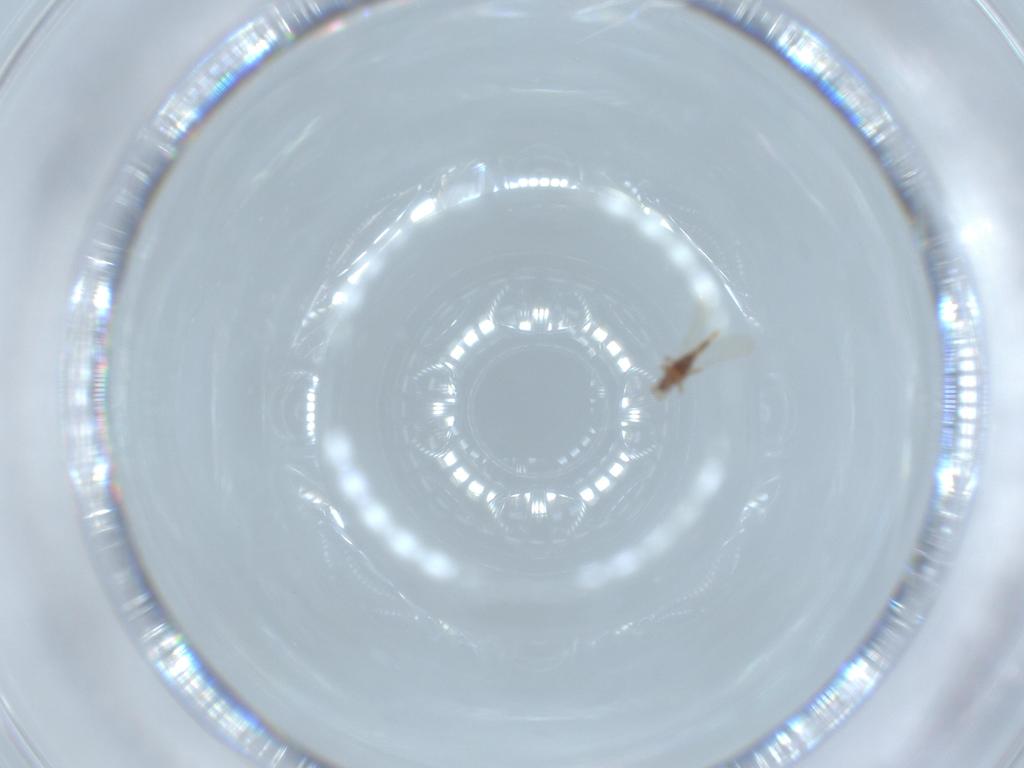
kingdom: Animalia
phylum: Arthropoda
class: Insecta
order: Hemiptera
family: Pseudococcidae
